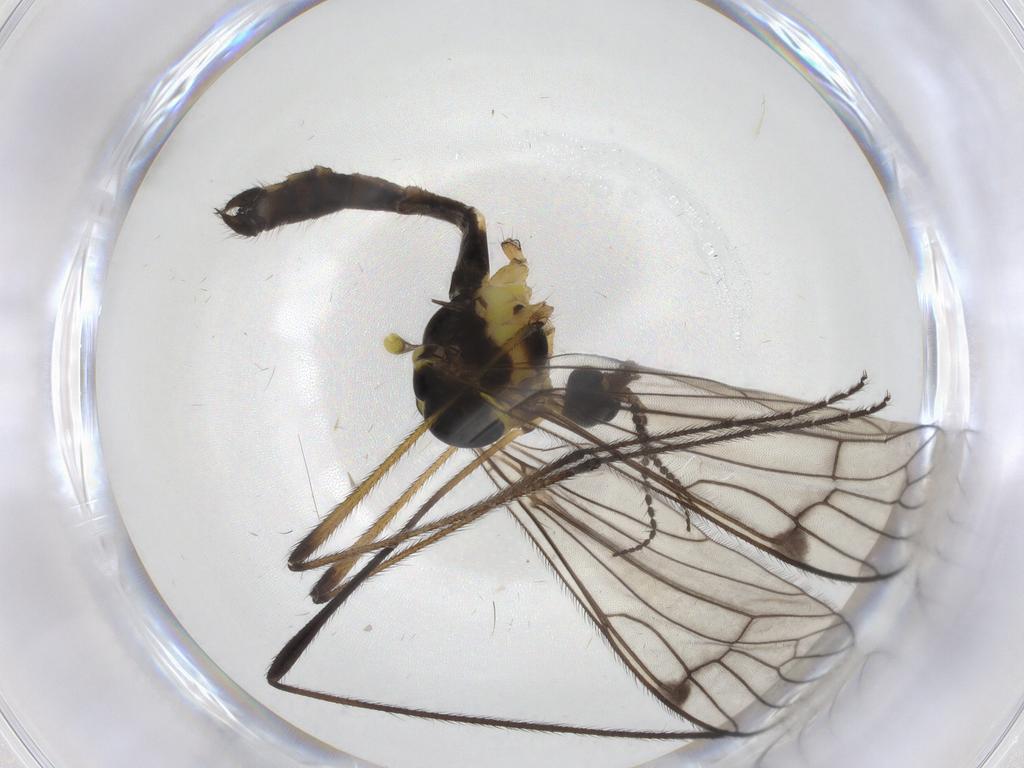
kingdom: Animalia
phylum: Arthropoda
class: Insecta
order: Diptera
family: Limoniidae
